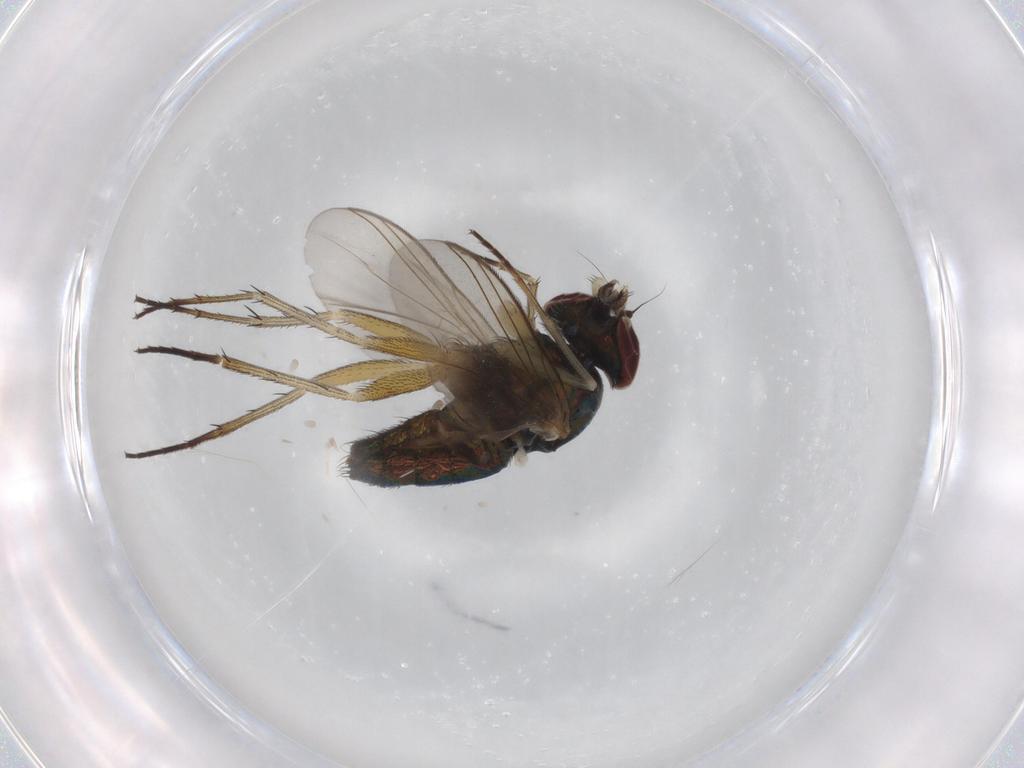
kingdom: Animalia
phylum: Arthropoda
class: Insecta
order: Diptera
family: Dolichopodidae
